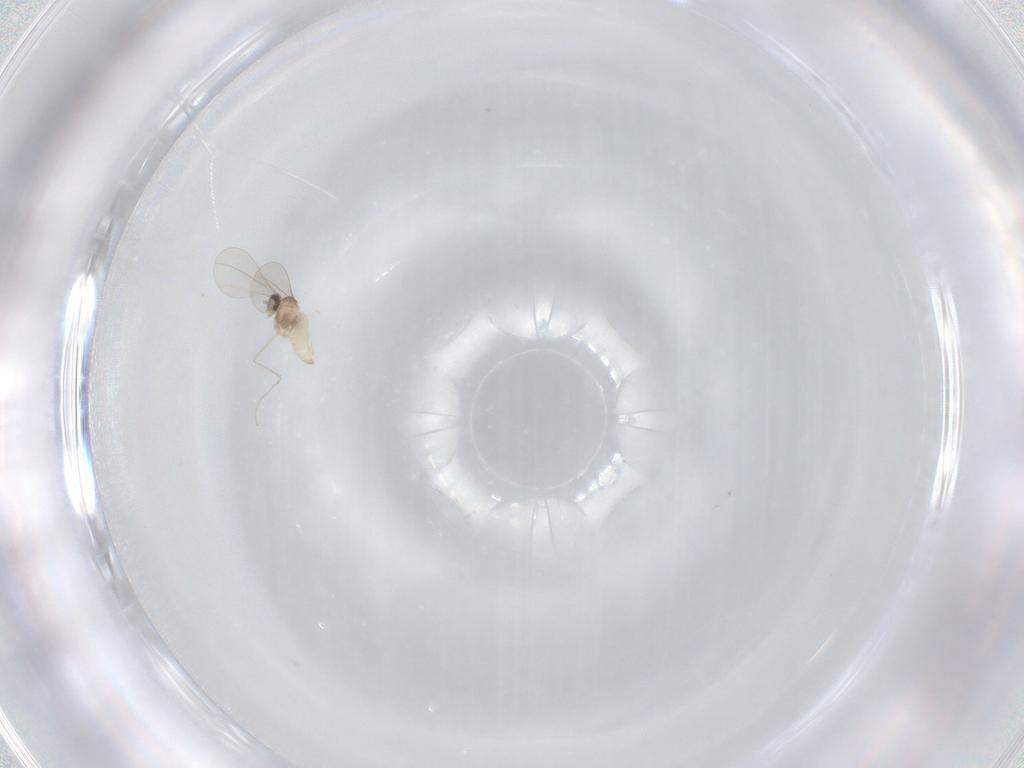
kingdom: Animalia
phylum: Arthropoda
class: Insecta
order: Diptera
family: Cecidomyiidae
